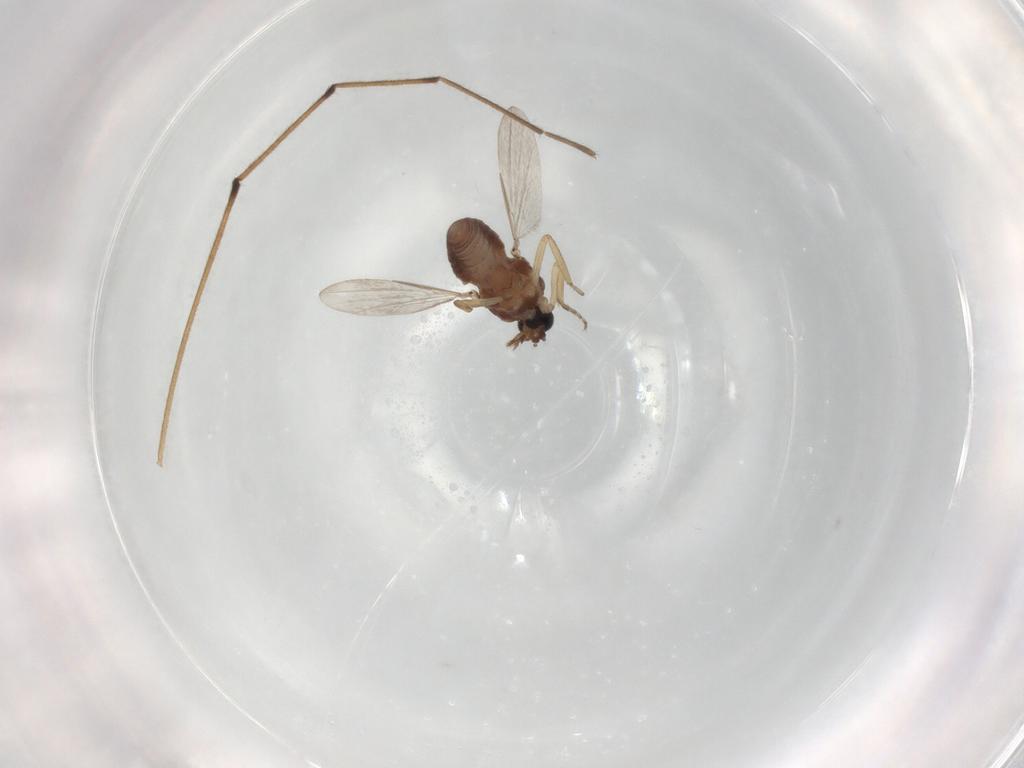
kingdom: Animalia
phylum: Arthropoda
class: Insecta
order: Diptera
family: Ceratopogonidae
